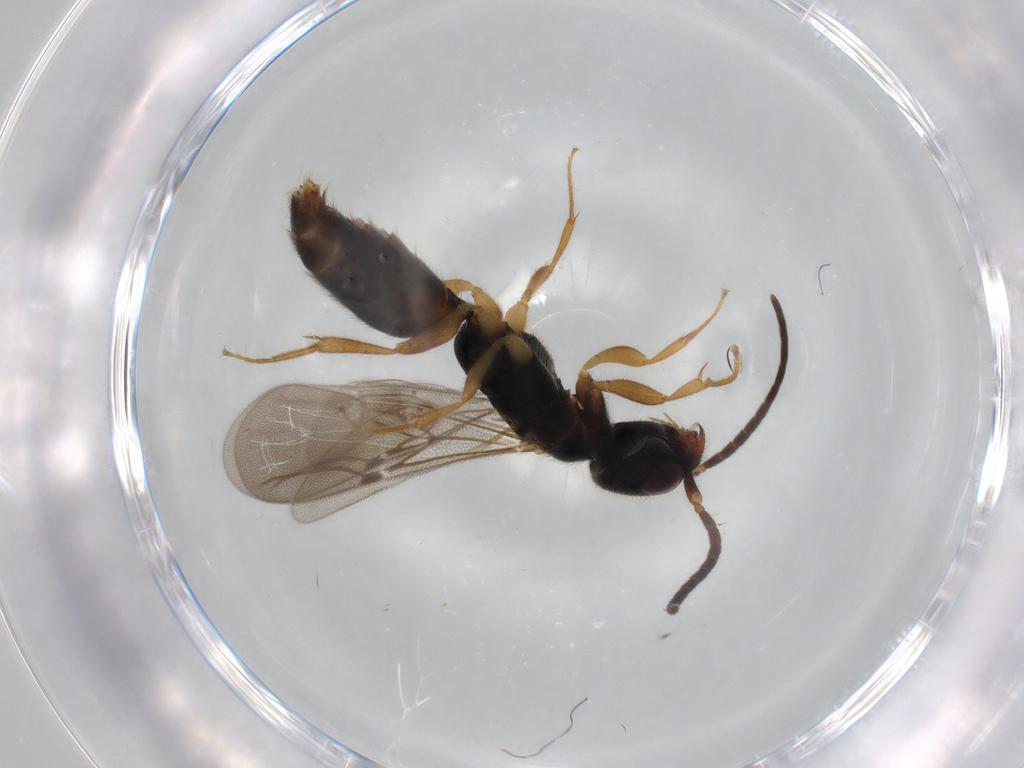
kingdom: Animalia
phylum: Arthropoda
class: Insecta
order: Hymenoptera
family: Bethylidae
